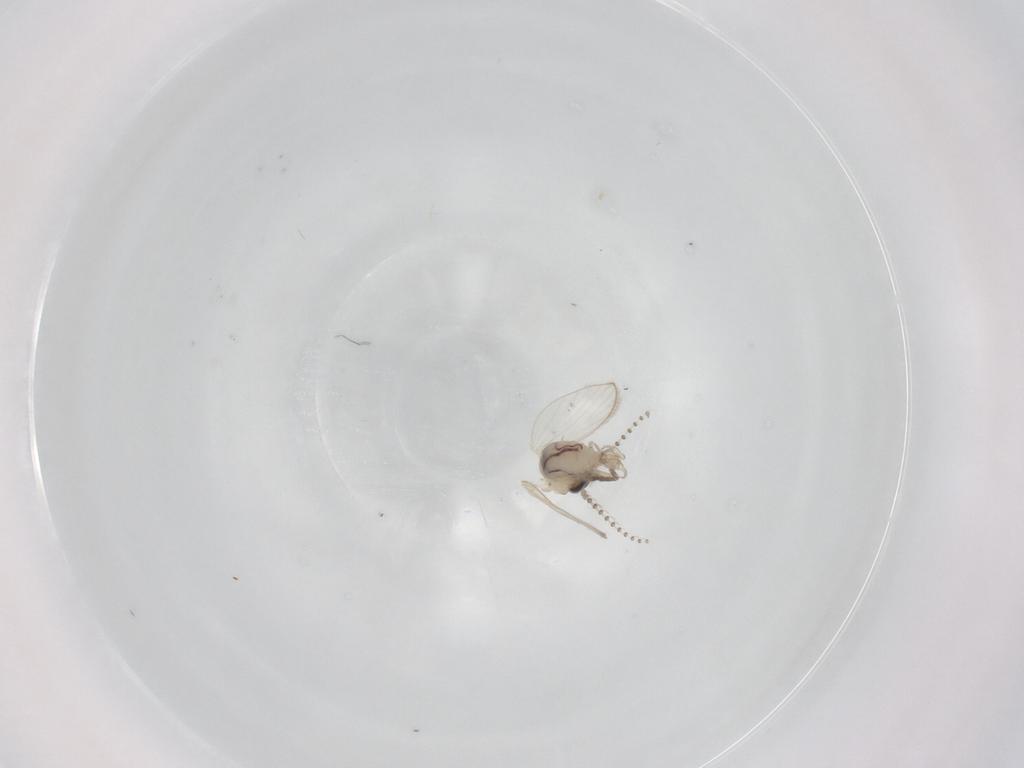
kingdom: Animalia
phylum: Arthropoda
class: Insecta
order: Diptera
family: Psychodidae
